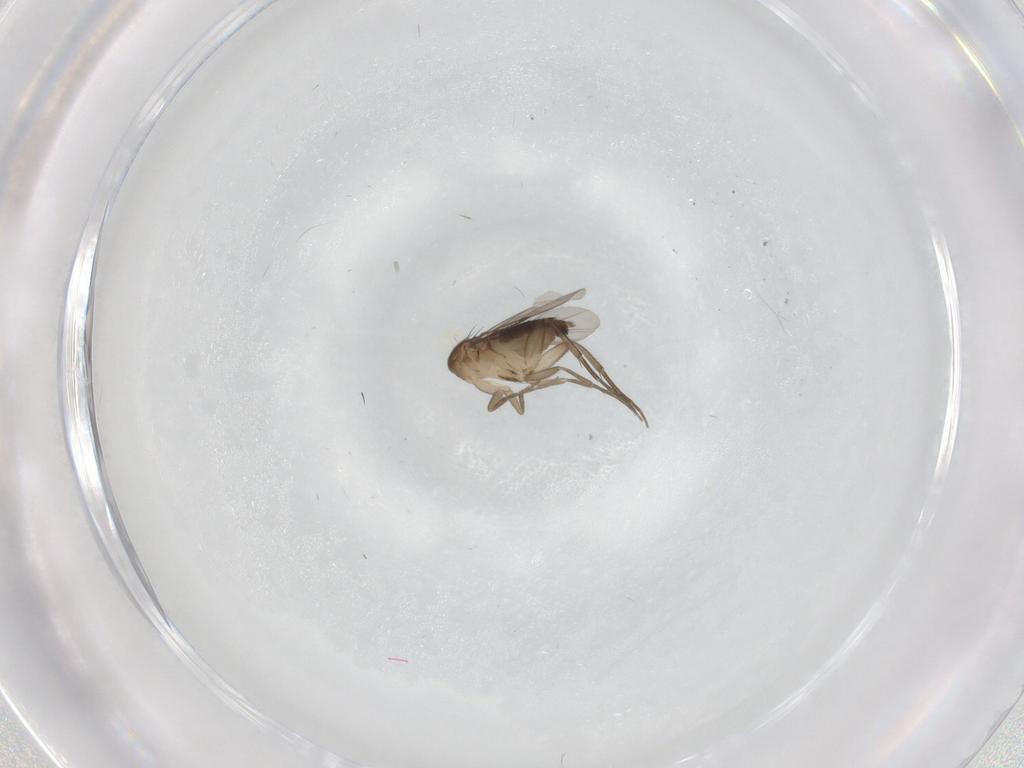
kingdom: Animalia
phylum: Arthropoda
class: Insecta
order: Diptera
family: Phoridae
